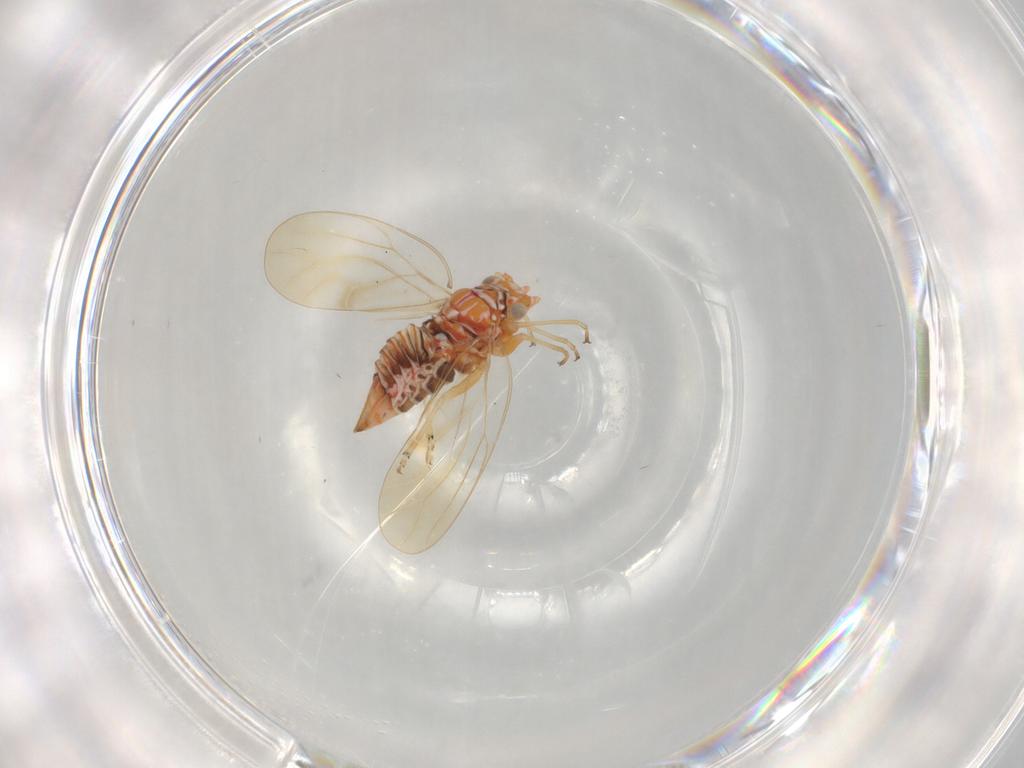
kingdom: Animalia
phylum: Arthropoda
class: Insecta
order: Hemiptera
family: Psyllidae
